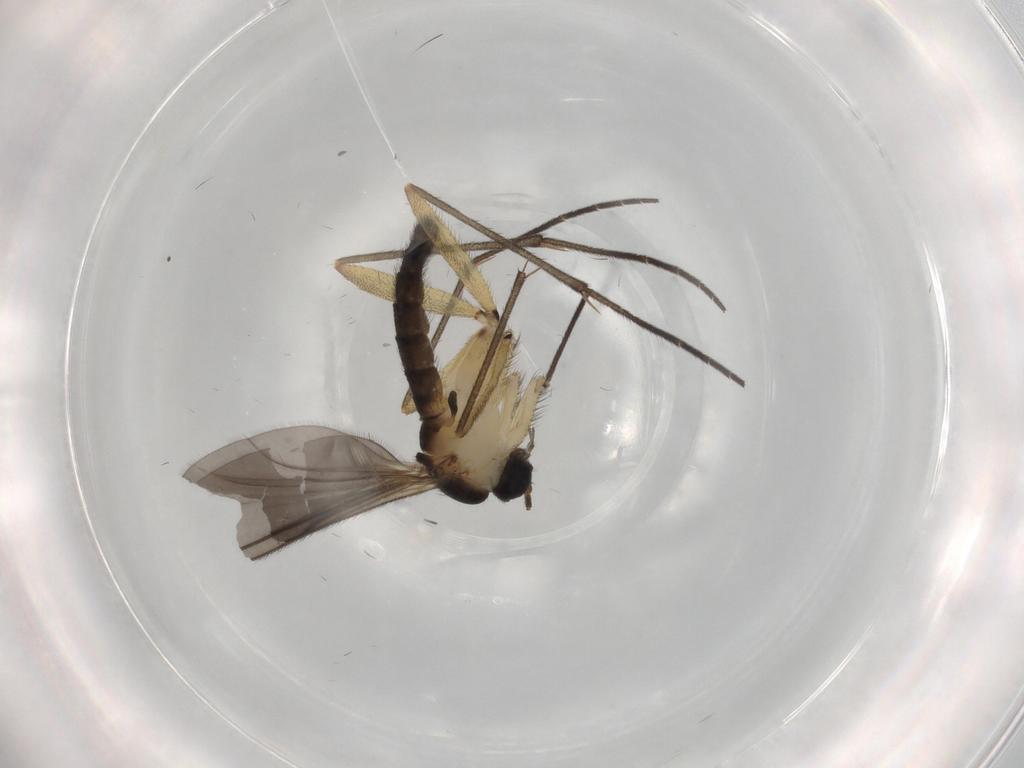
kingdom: Animalia
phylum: Arthropoda
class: Insecta
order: Diptera
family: Sciaridae
